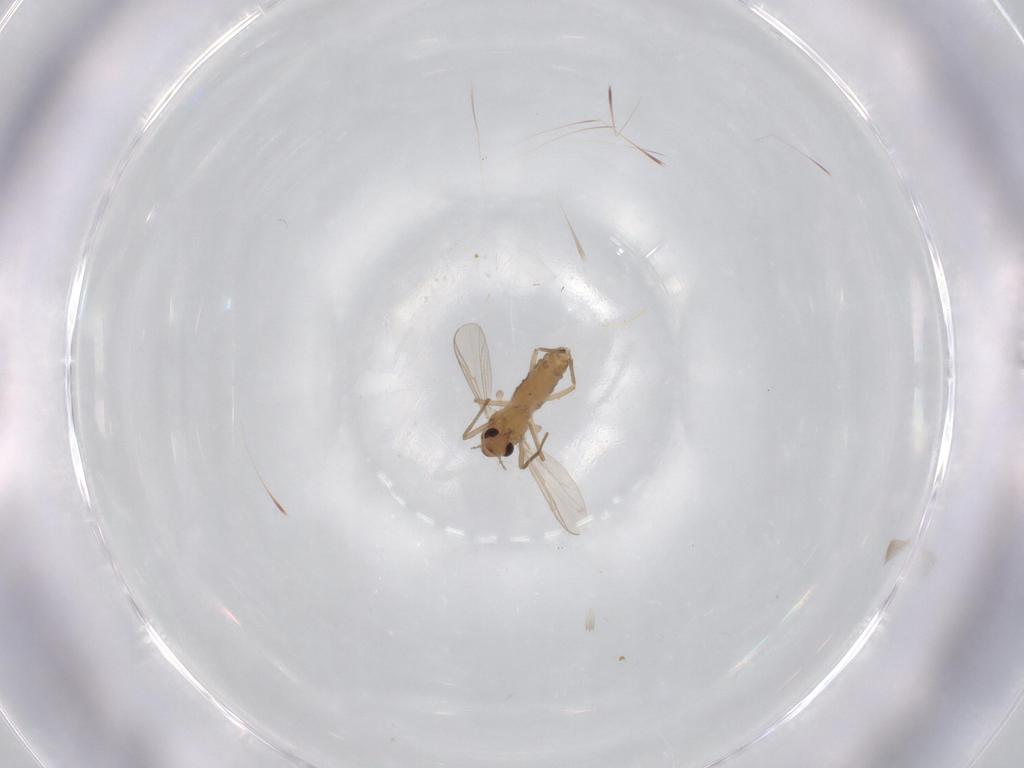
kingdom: Animalia
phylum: Arthropoda
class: Insecta
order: Diptera
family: Chironomidae
